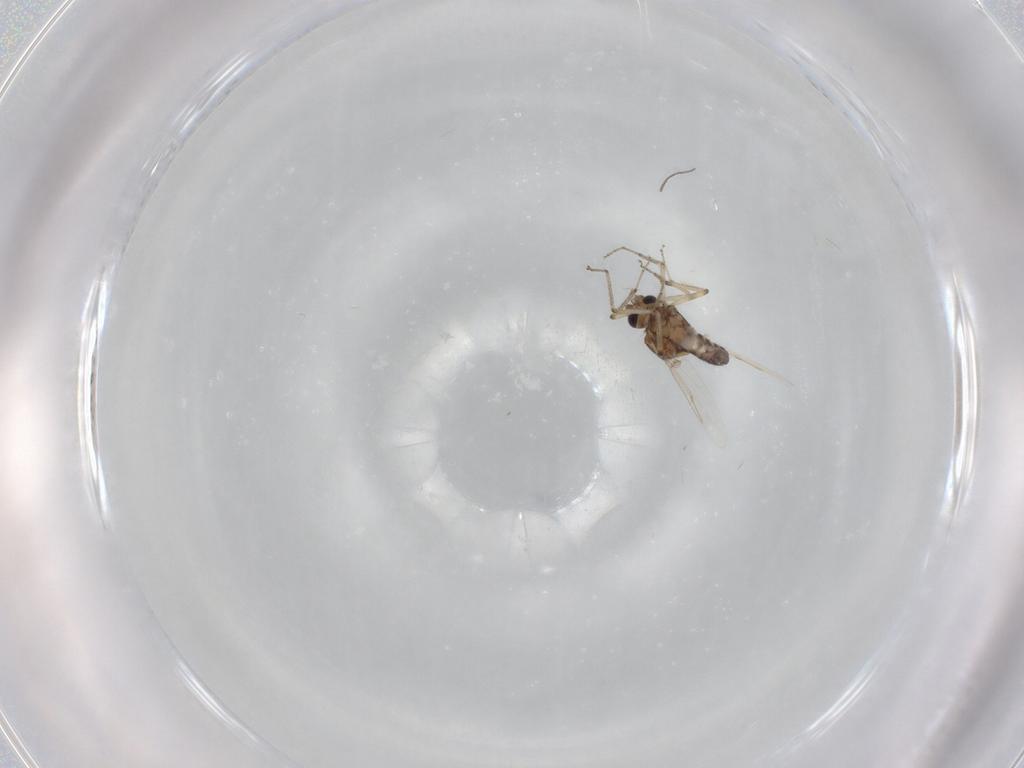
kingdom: Animalia
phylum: Arthropoda
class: Insecta
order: Diptera
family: Ceratopogonidae
